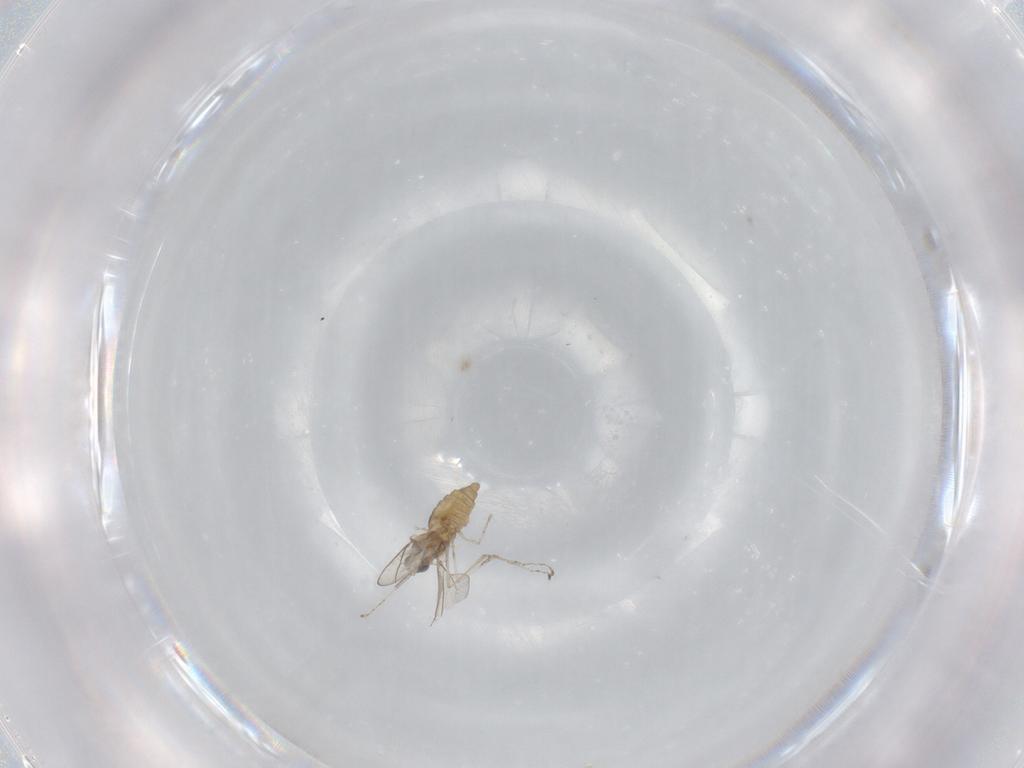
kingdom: Animalia
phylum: Arthropoda
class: Insecta
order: Diptera
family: Cecidomyiidae
